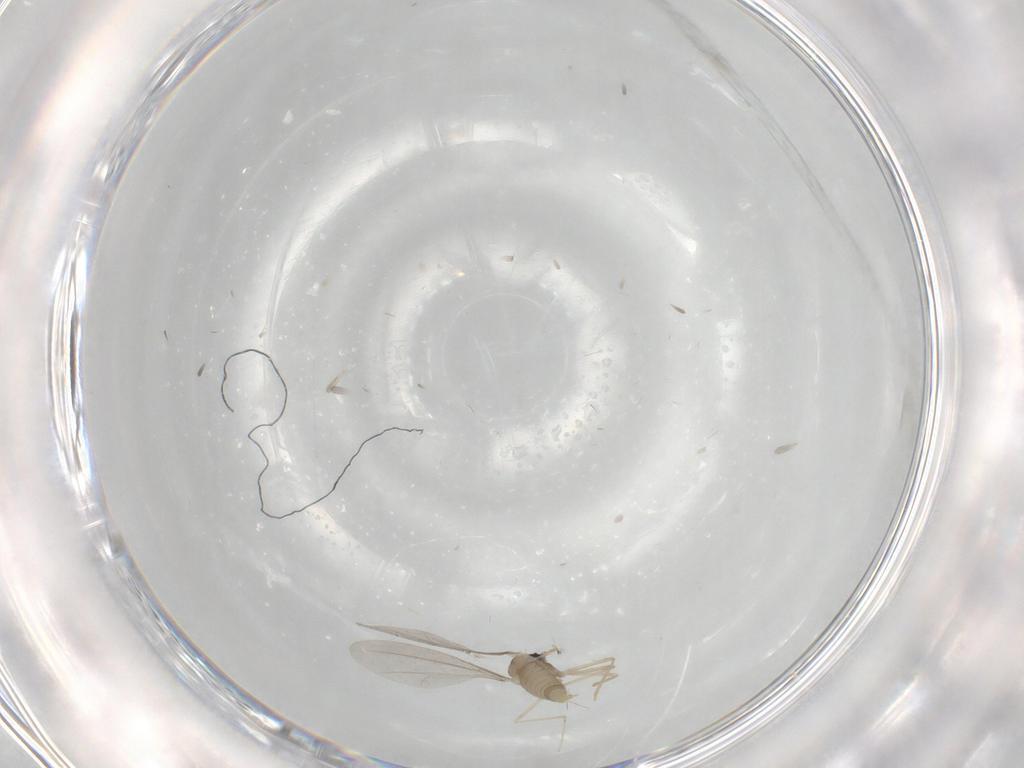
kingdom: Animalia
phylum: Arthropoda
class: Insecta
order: Diptera
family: Cecidomyiidae
